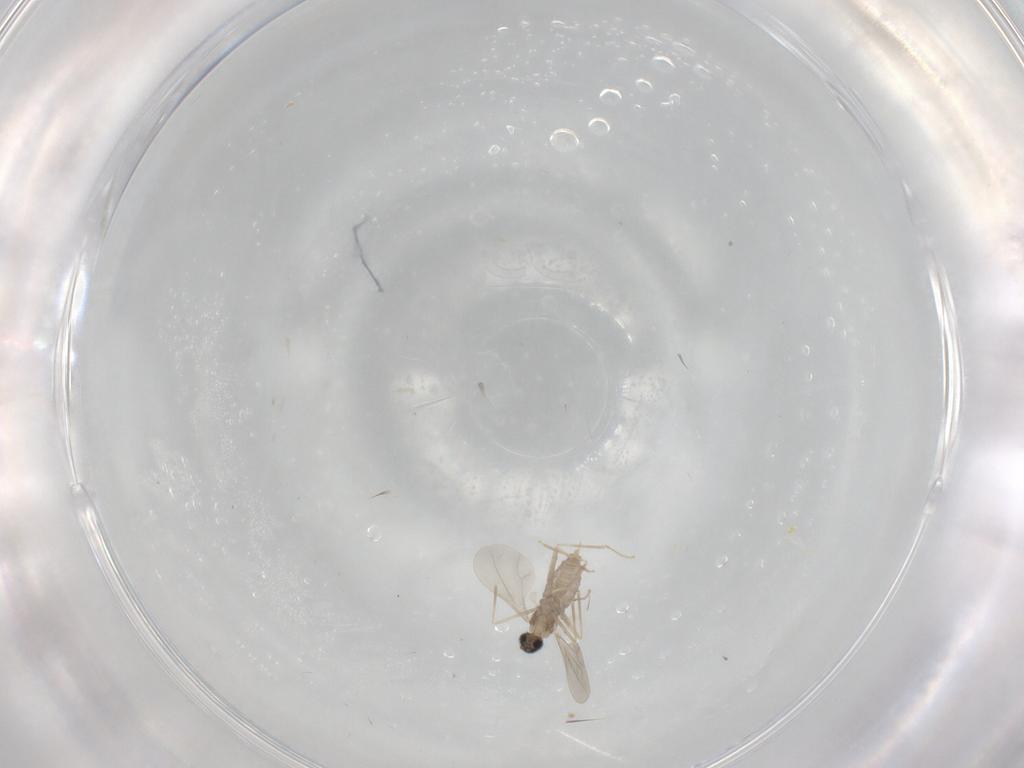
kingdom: Animalia
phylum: Arthropoda
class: Insecta
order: Diptera
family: Cecidomyiidae
